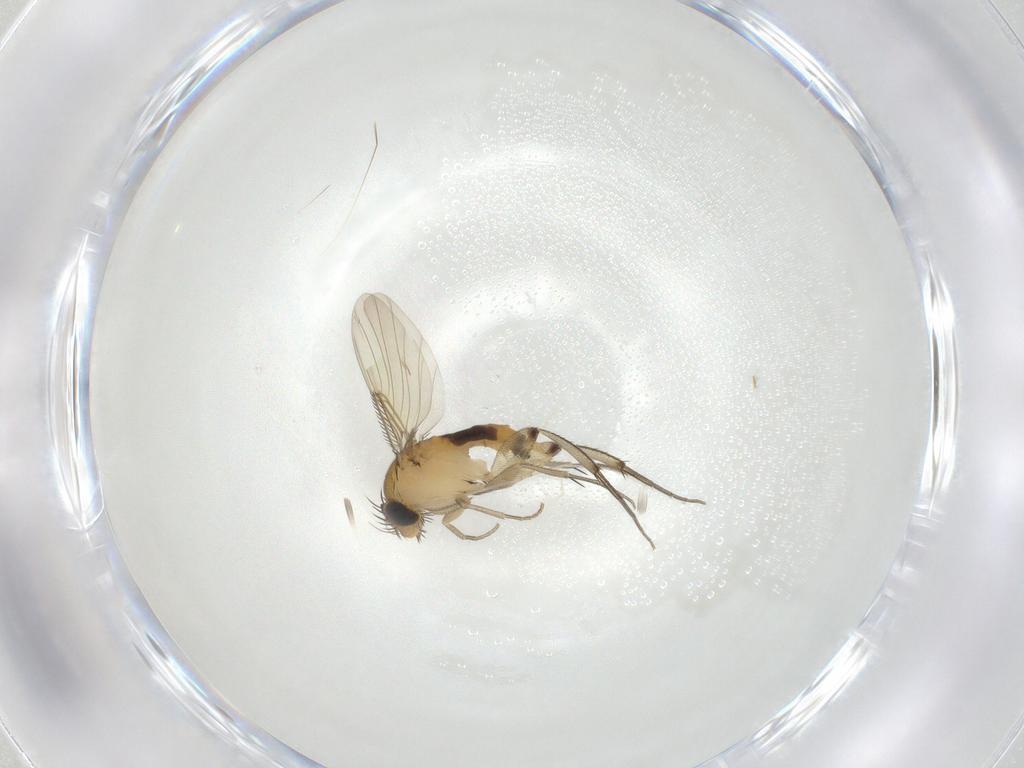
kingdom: Animalia
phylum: Arthropoda
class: Insecta
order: Diptera
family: Phoridae
